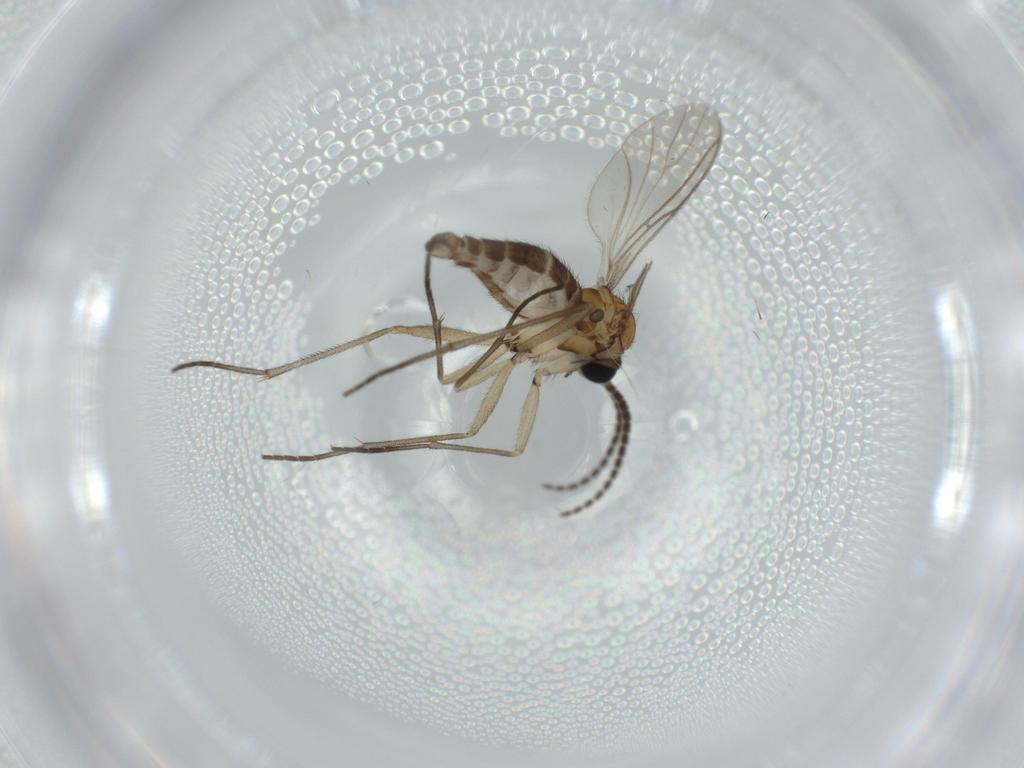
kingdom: Animalia
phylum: Arthropoda
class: Insecta
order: Diptera
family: Sciaridae
